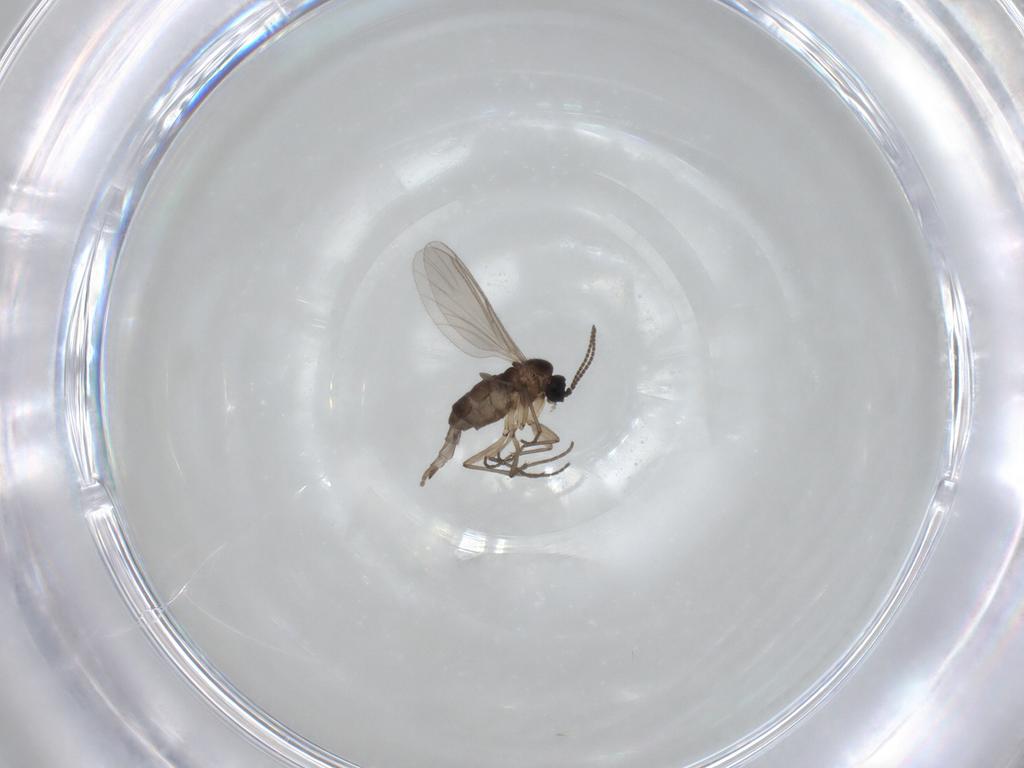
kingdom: Animalia
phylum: Arthropoda
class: Insecta
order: Diptera
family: Sciaridae
